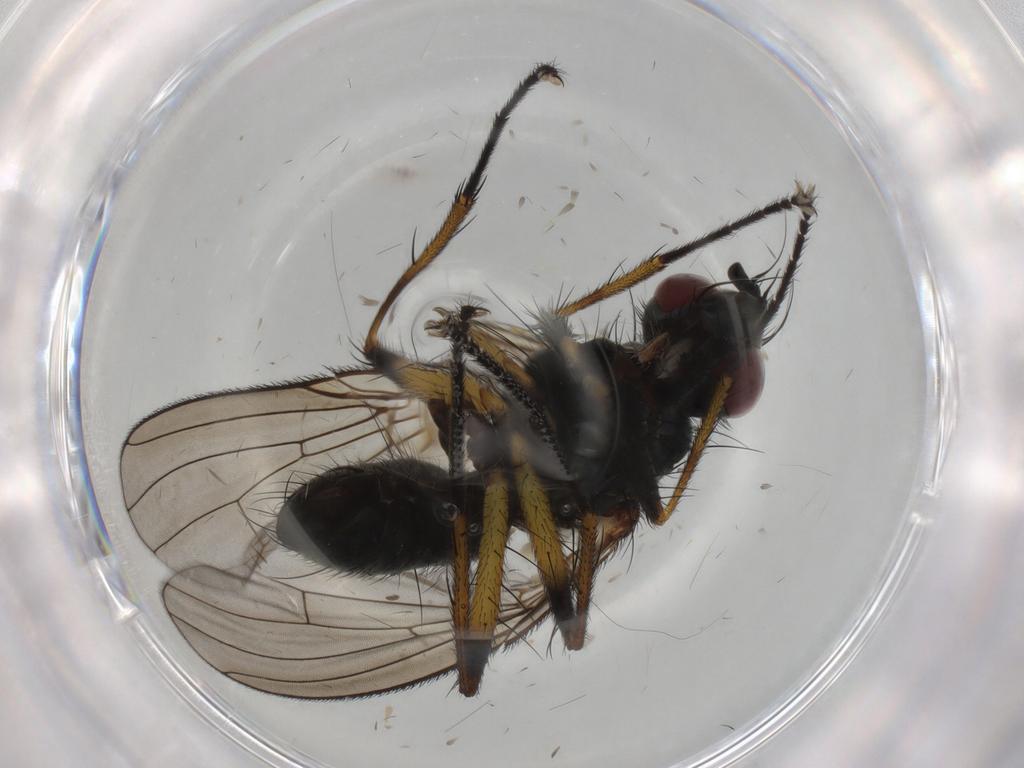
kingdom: Animalia
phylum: Arthropoda
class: Insecta
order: Diptera
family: Muscidae
